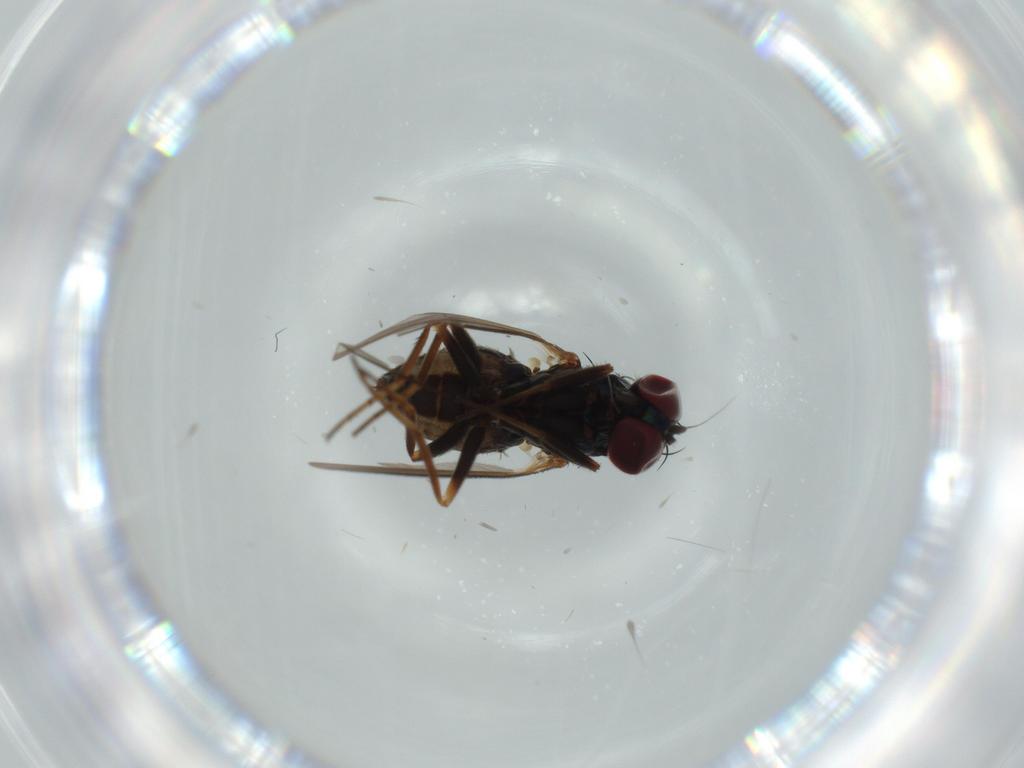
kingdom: Animalia
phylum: Arthropoda
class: Insecta
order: Diptera
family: Dolichopodidae
